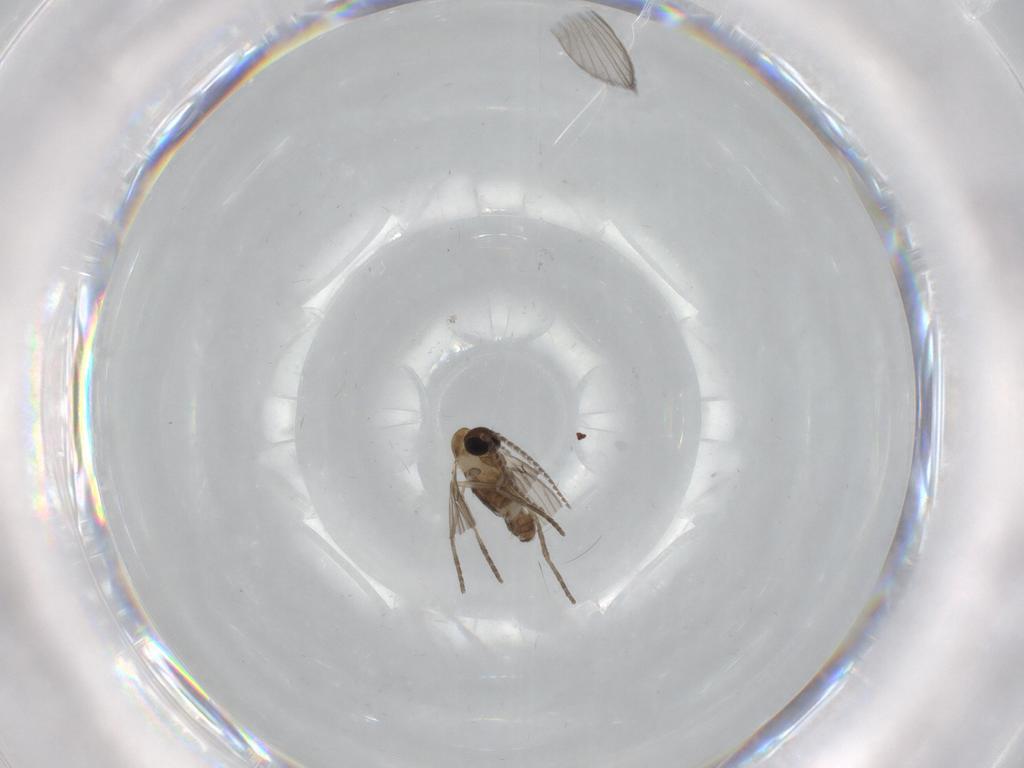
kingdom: Animalia
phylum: Arthropoda
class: Insecta
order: Diptera
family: Psychodidae
